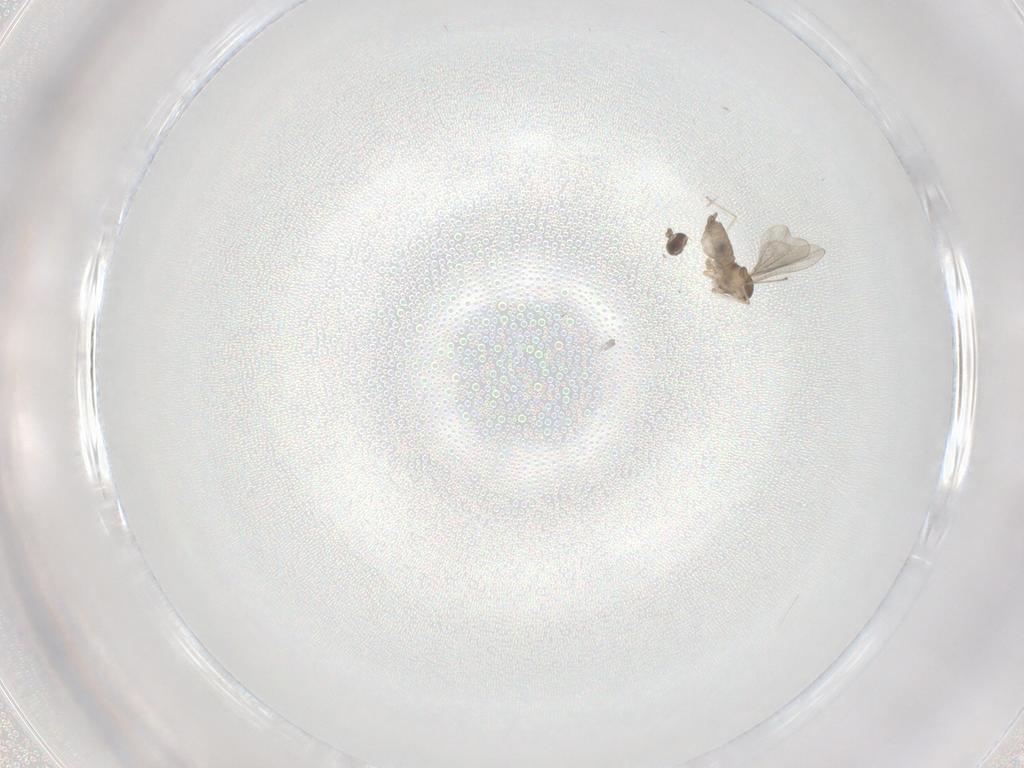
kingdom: Animalia
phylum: Arthropoda
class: Insecta
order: Diptera
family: Cecidomyiidae
